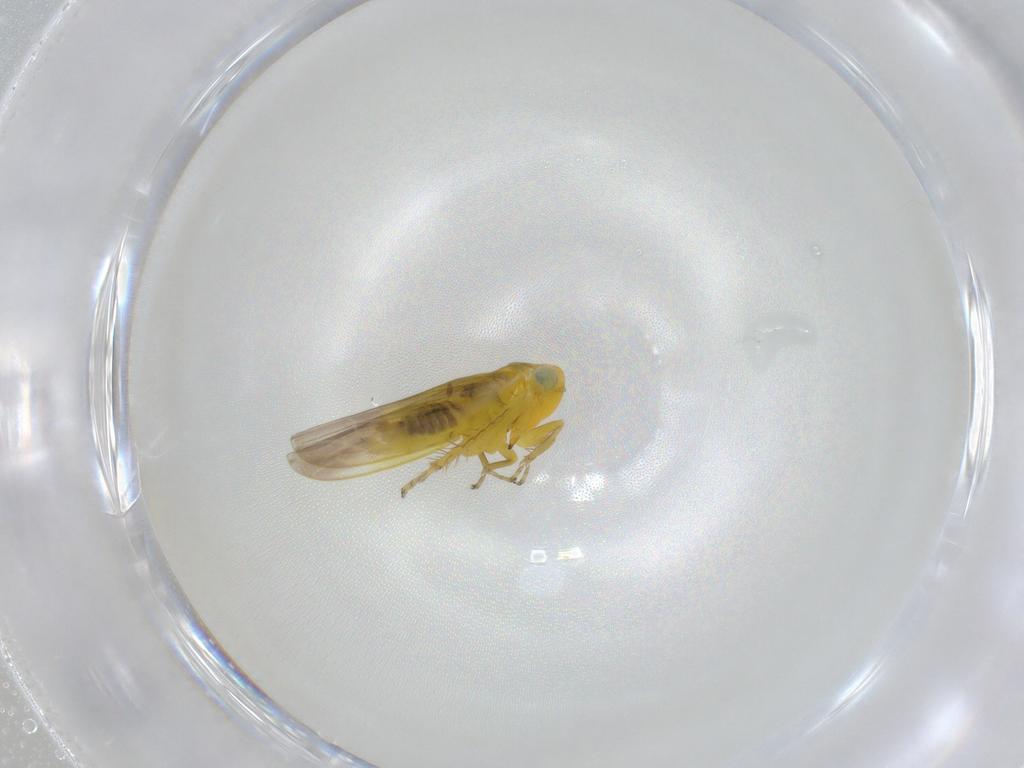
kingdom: Animalia
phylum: Arthropoda
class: Insecta
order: Hemiptera
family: Cicadellidae
